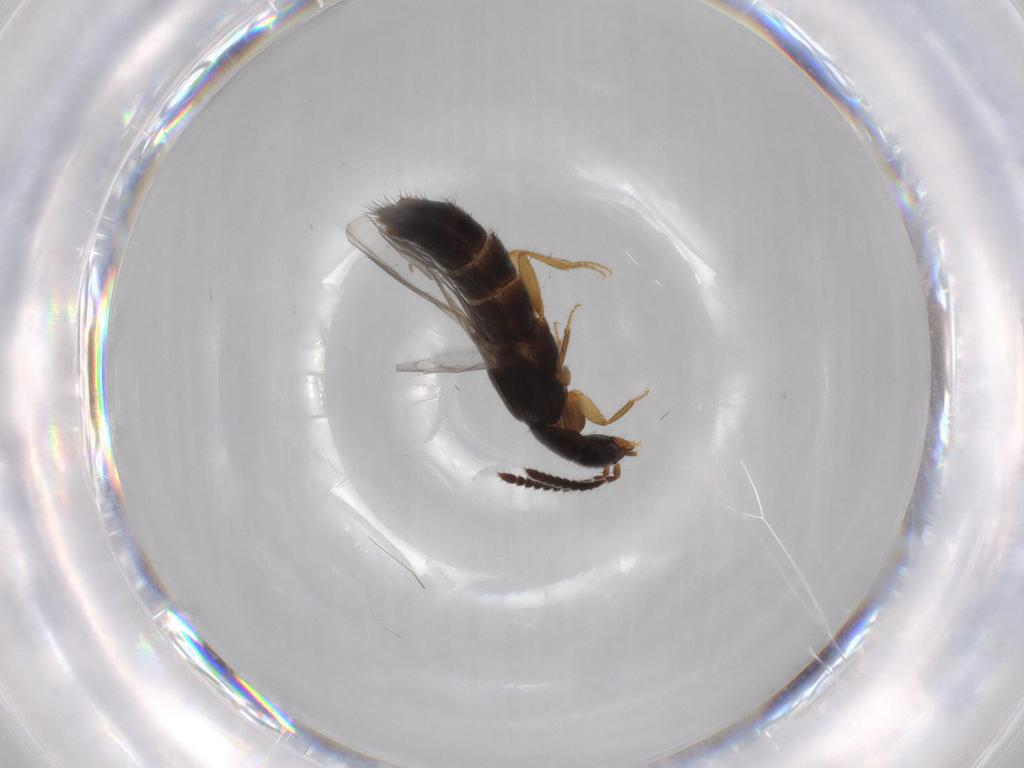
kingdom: Animalia
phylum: Arthropoda
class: Insecta
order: Coleoptera
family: Staphylinidae
